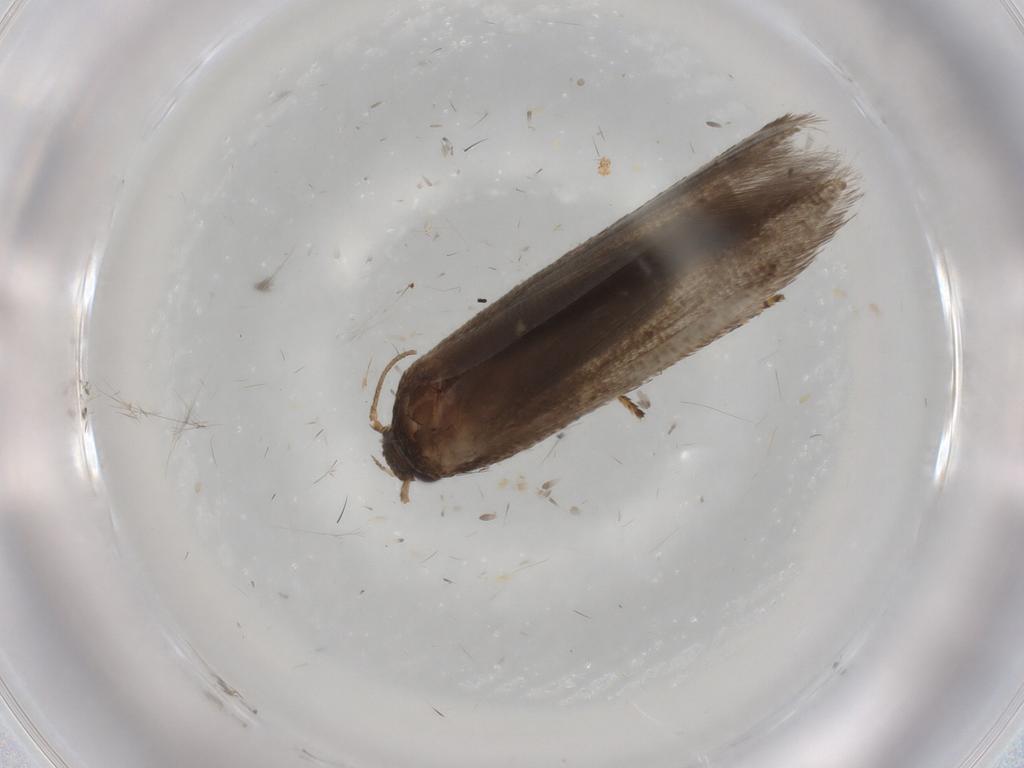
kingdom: Animalia
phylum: Arthropoda
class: Insecta
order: Lepidoptera
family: Blastobasidae
